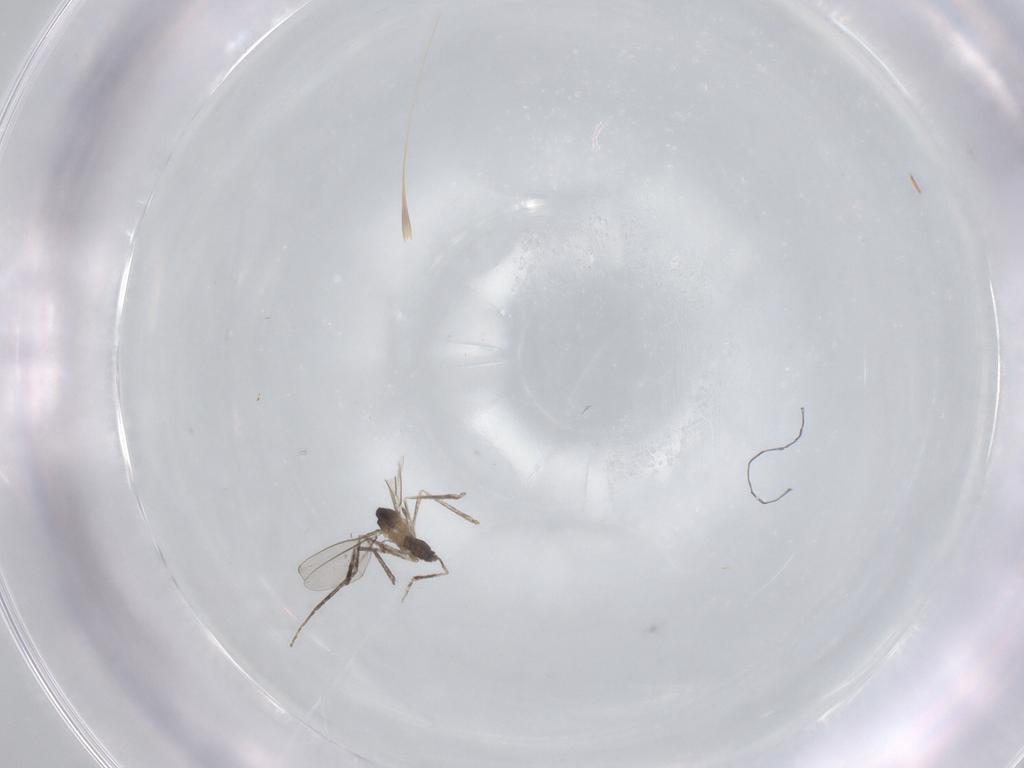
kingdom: Animalia
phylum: Arthropoda
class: Insecta
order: Diptera
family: Cecidomyiidae
